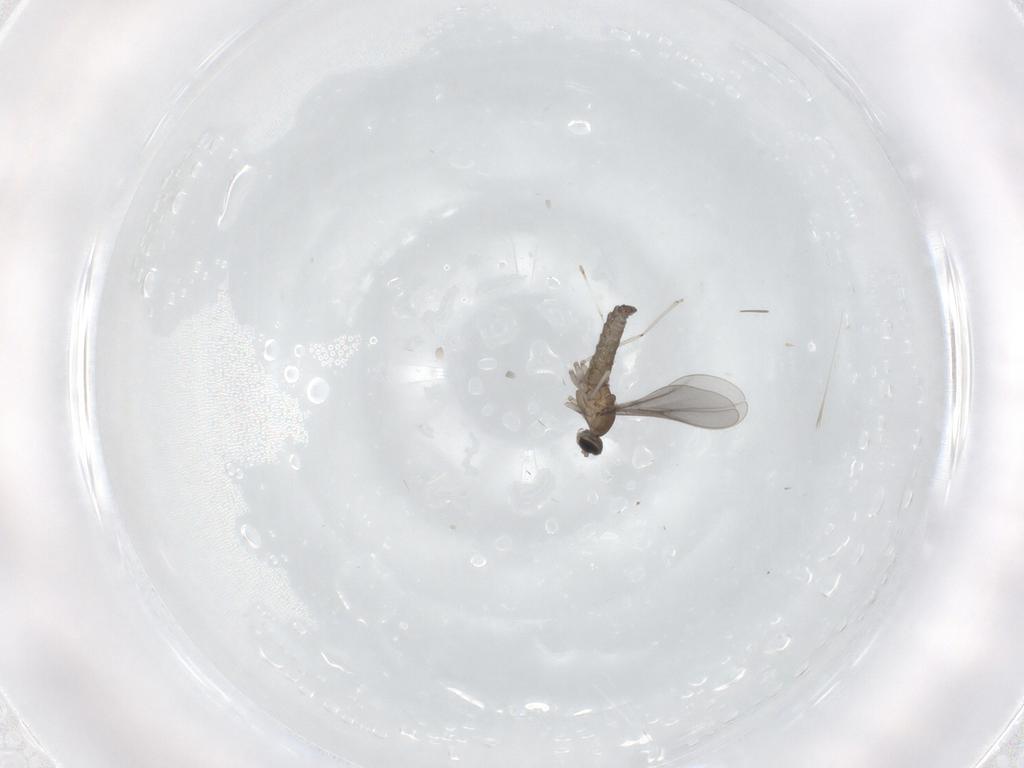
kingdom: Animalia
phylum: Arthropoda
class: Insecta
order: Diptera
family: Cecidomyiidae
